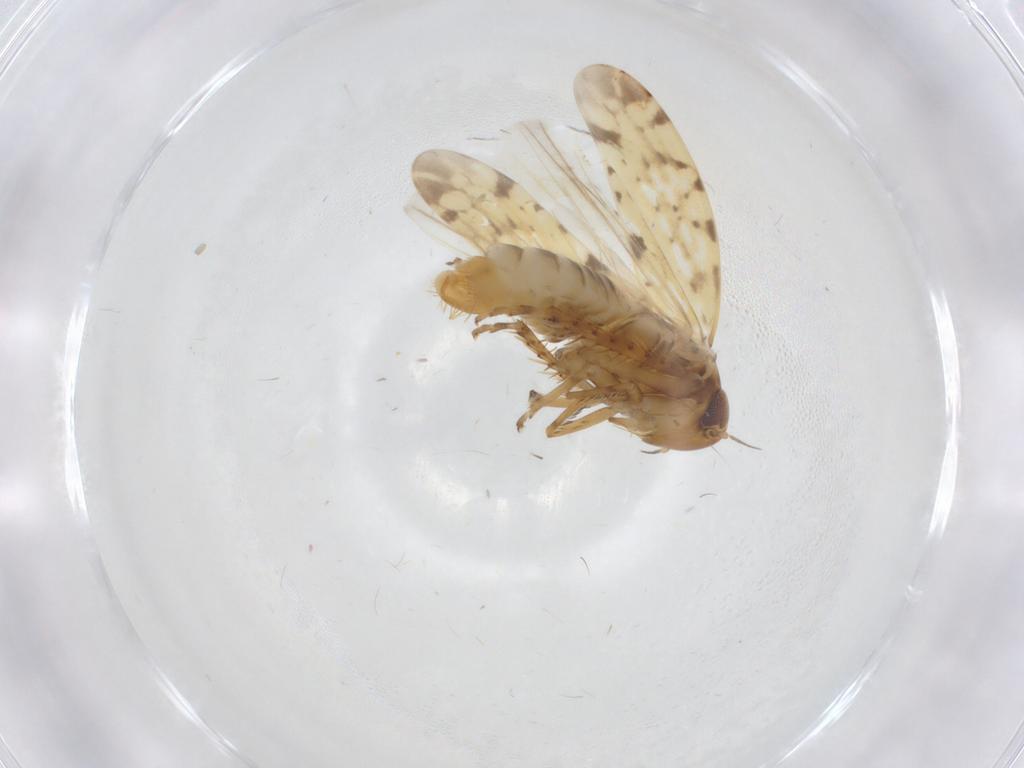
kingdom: Animalia
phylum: Arthropoda
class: Insecta
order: Hemiptera
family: Cicadellidae
